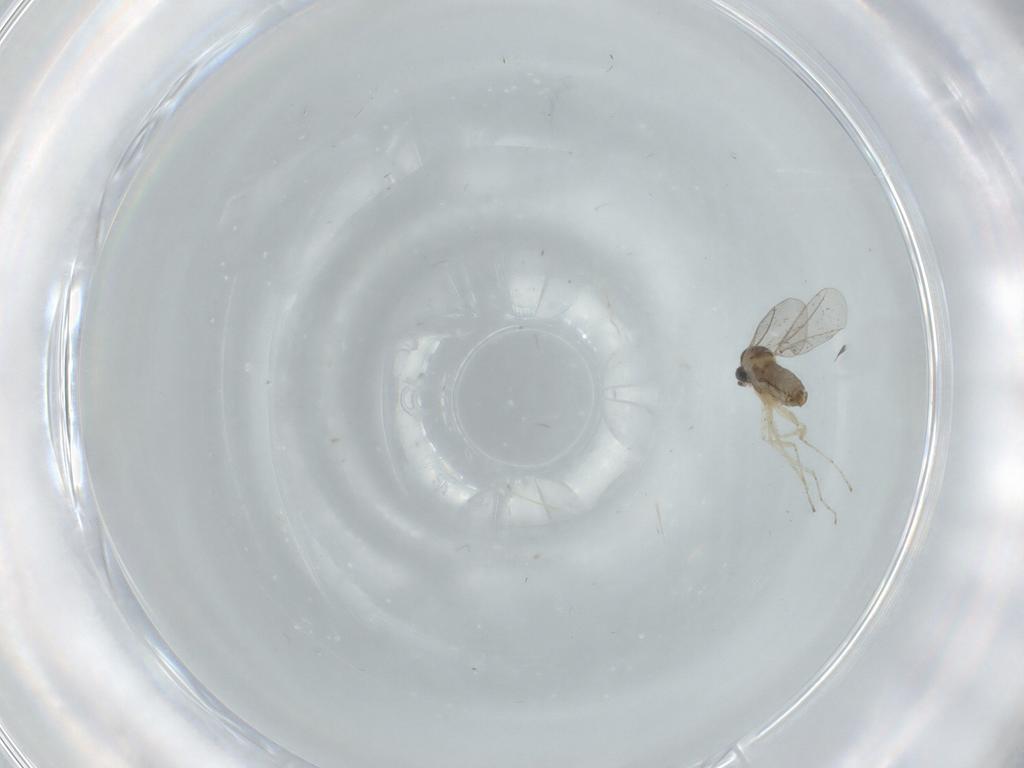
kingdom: Animalia
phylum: Arthropoda
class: Insecta
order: Diptera
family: Cecidomyiidae
